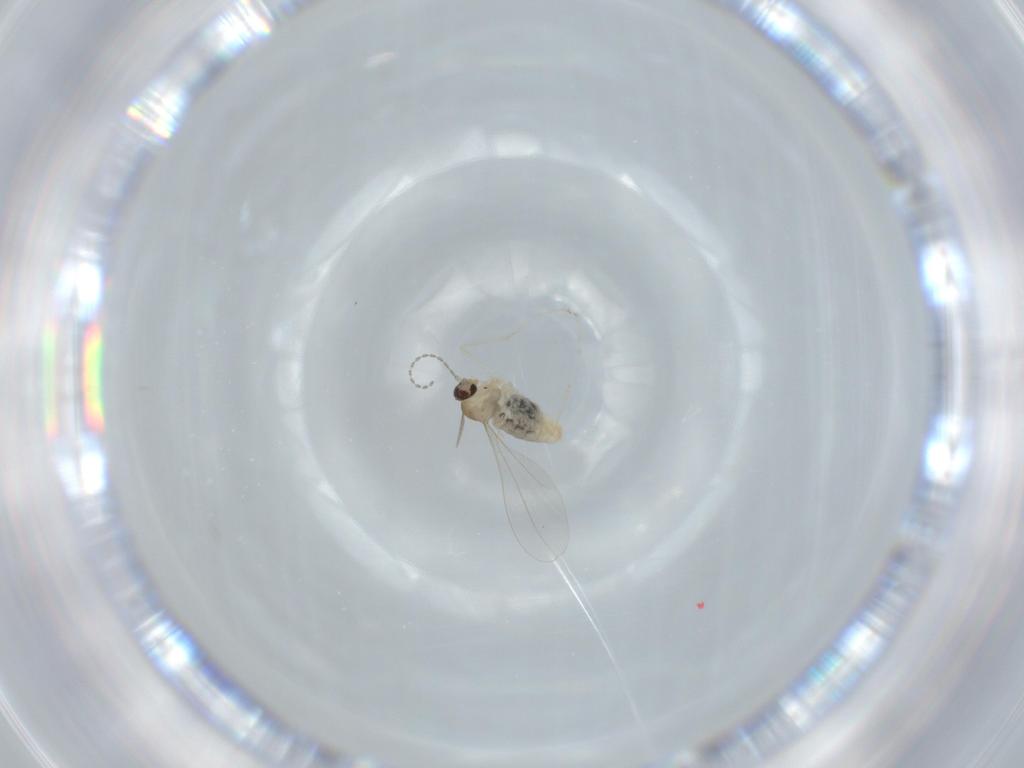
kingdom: Animalia
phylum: Arthropoda
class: Insecta
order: Diptera
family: Cecidomyiidae
